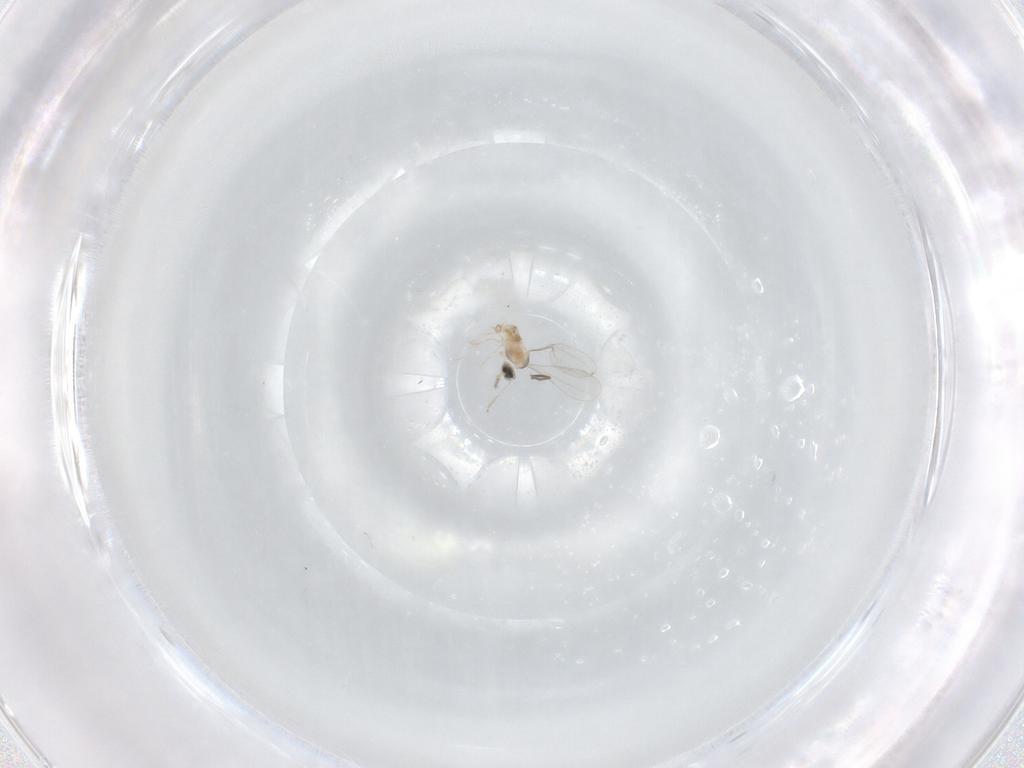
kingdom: Animalia
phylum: Arthropoda
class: Insecta
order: Diptera
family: Cecidomyiidae
